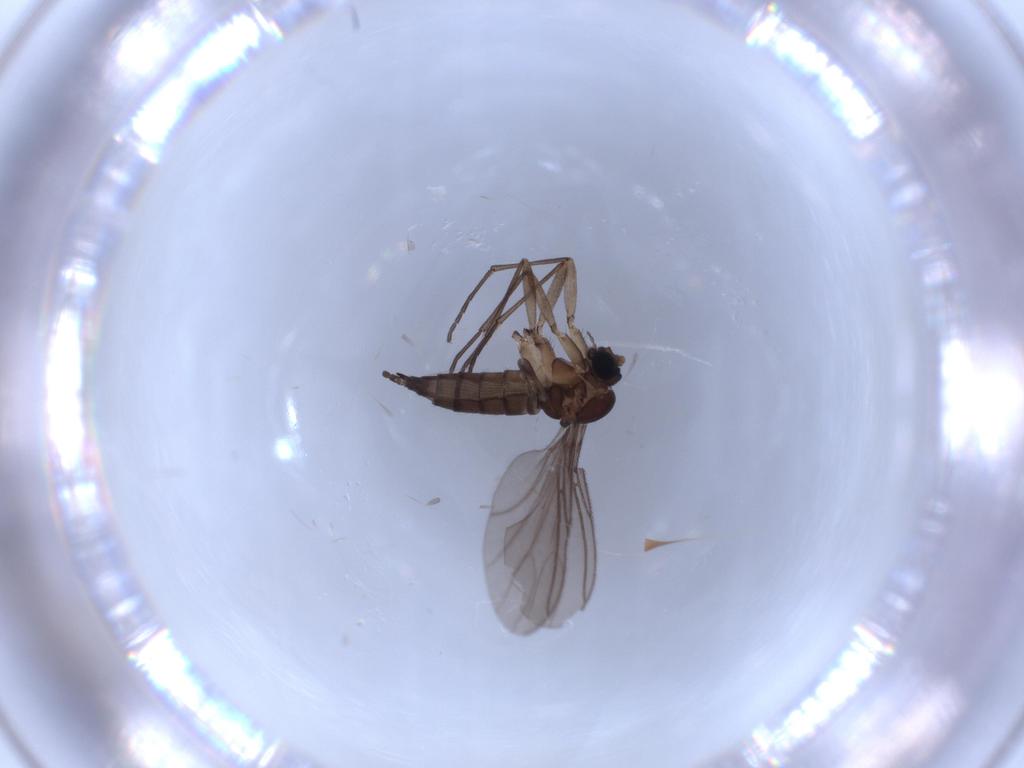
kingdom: Animalia
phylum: Arthropoda
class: Insecta
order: Diptera
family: Sciaridae
